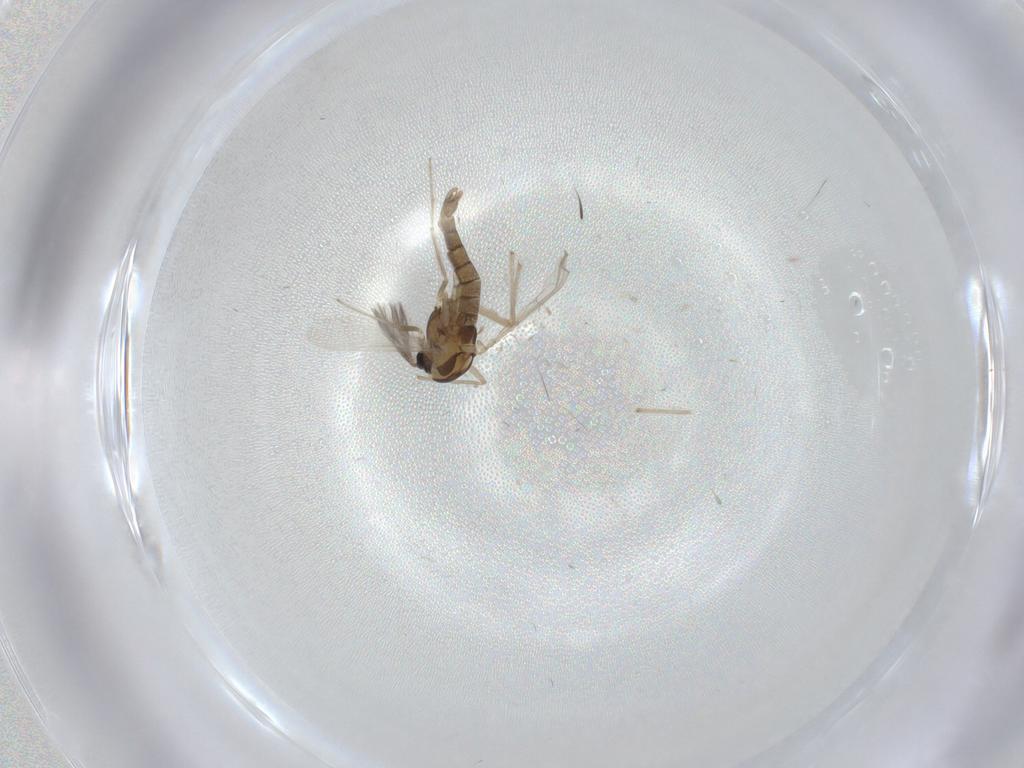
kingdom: Animalia
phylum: Arthropoda
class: Insecta
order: Diptera
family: Chironomidae
